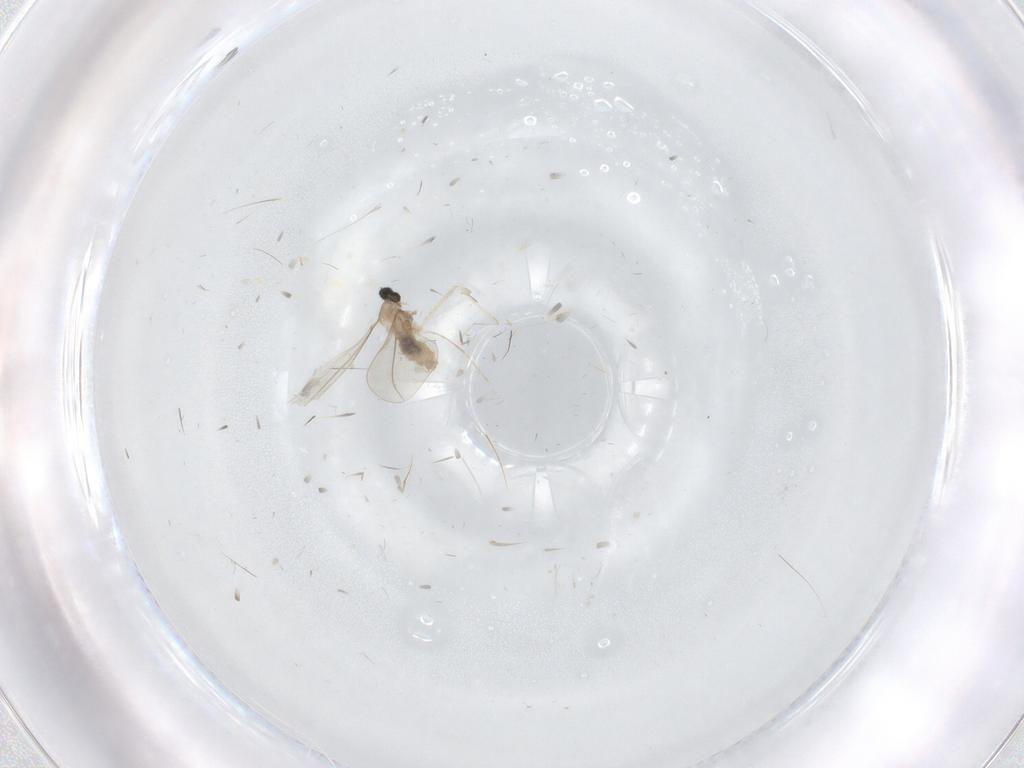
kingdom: Animalia
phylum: Arthropoda
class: Insecta
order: Diptera
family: Cecidomyiidae
